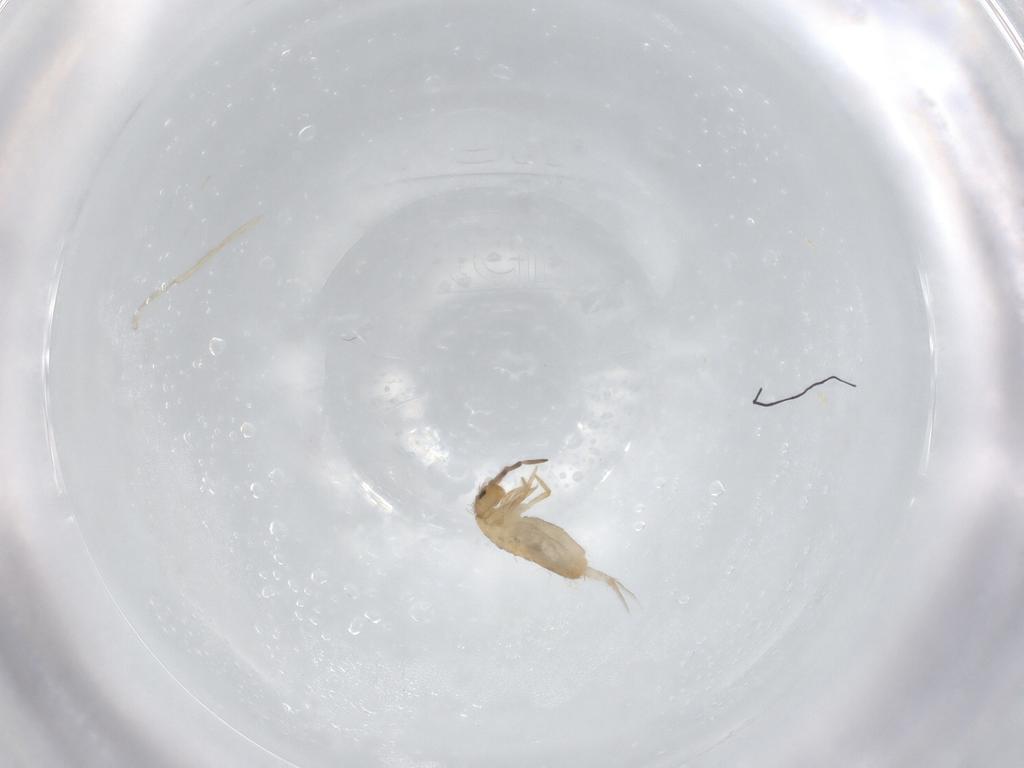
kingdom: Animalia
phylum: Arthropoda
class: Collembola
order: Entomobryomorpha
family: Entomobryidae
